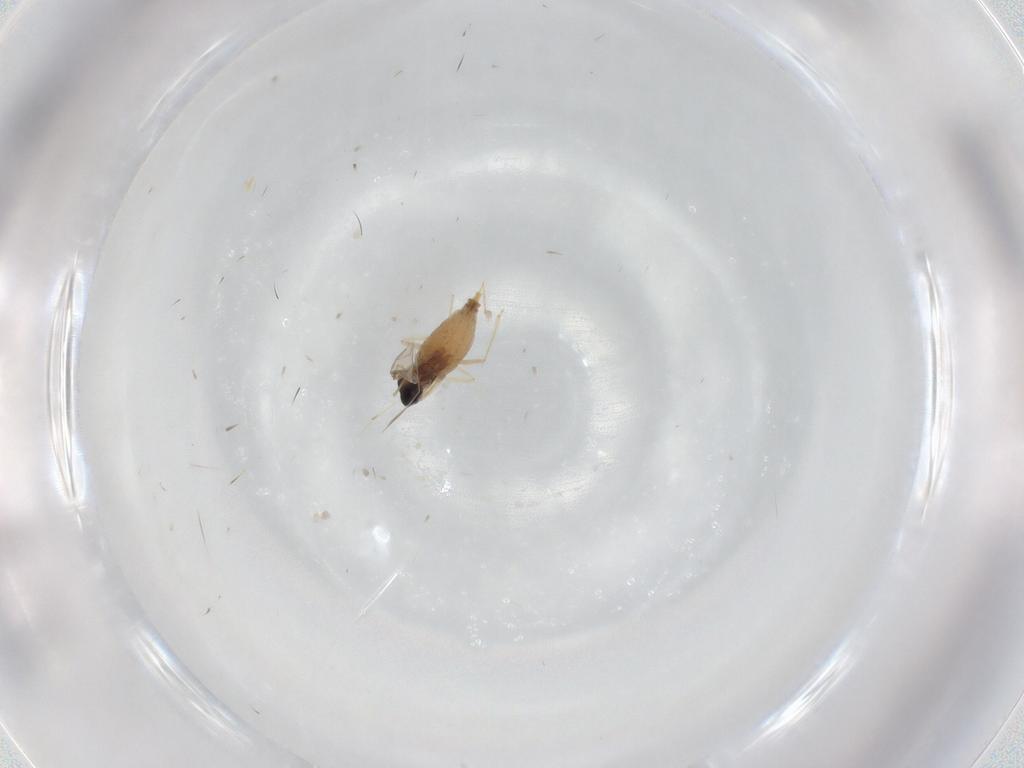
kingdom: Animalia
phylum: Arthropoda
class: Insecta
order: Diptera
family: Cecidomyiidae
